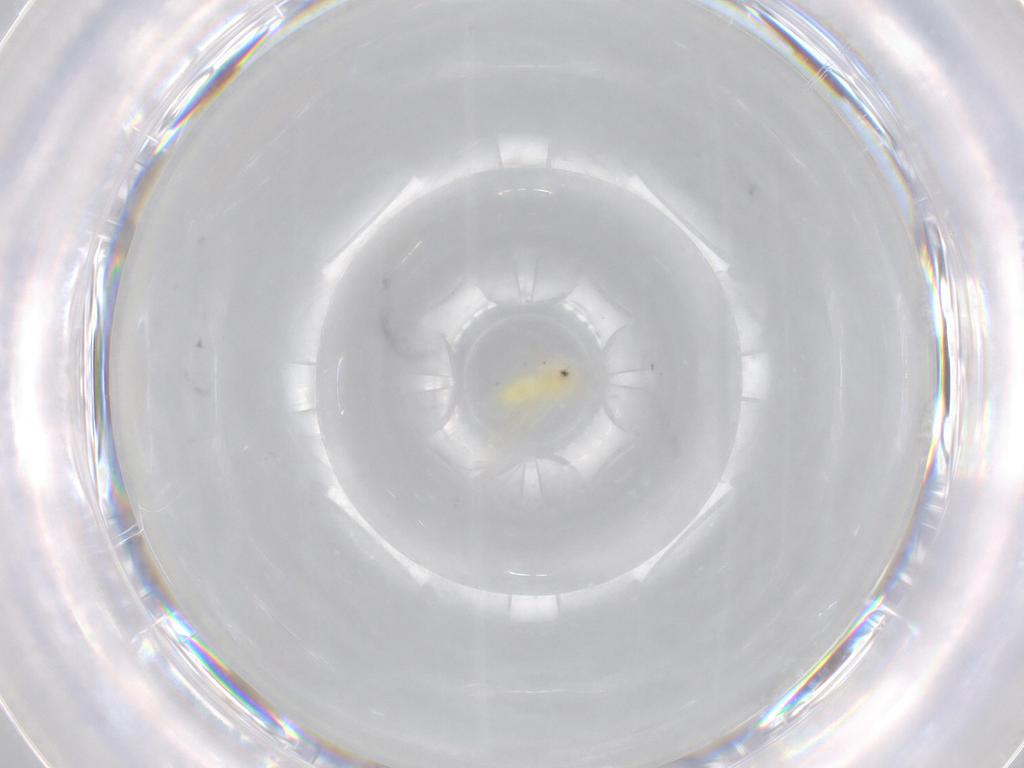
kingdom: Animalia
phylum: Arthropoda
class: Insecta
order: Hemiptera
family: Aleyrodidae
